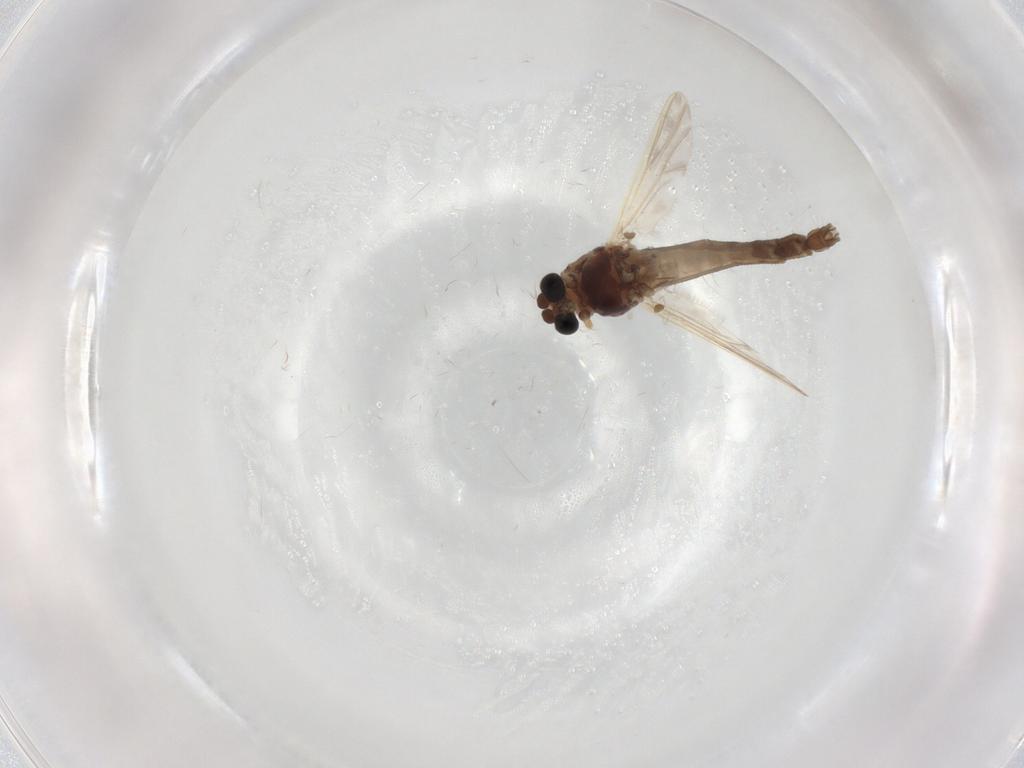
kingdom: Animalia
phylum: Arthropoda
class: Insecta
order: Diptera
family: Chironomidae
